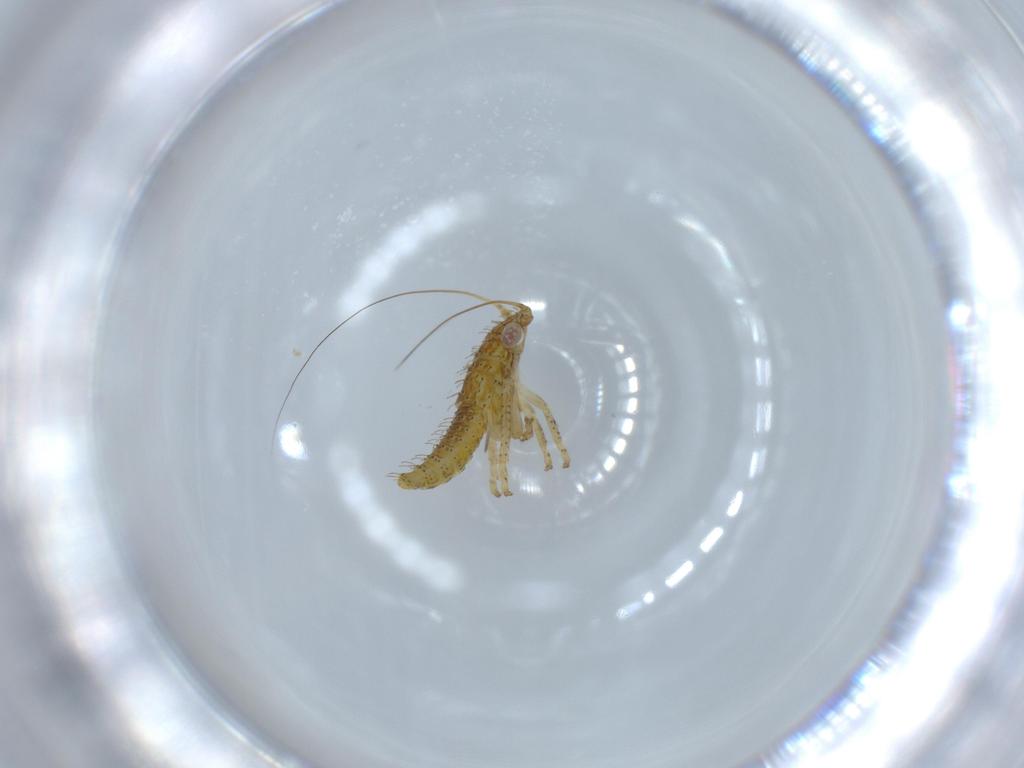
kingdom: Animalia
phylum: Arthropoda
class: Insecta
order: Hemiptera
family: Cicadellidae
